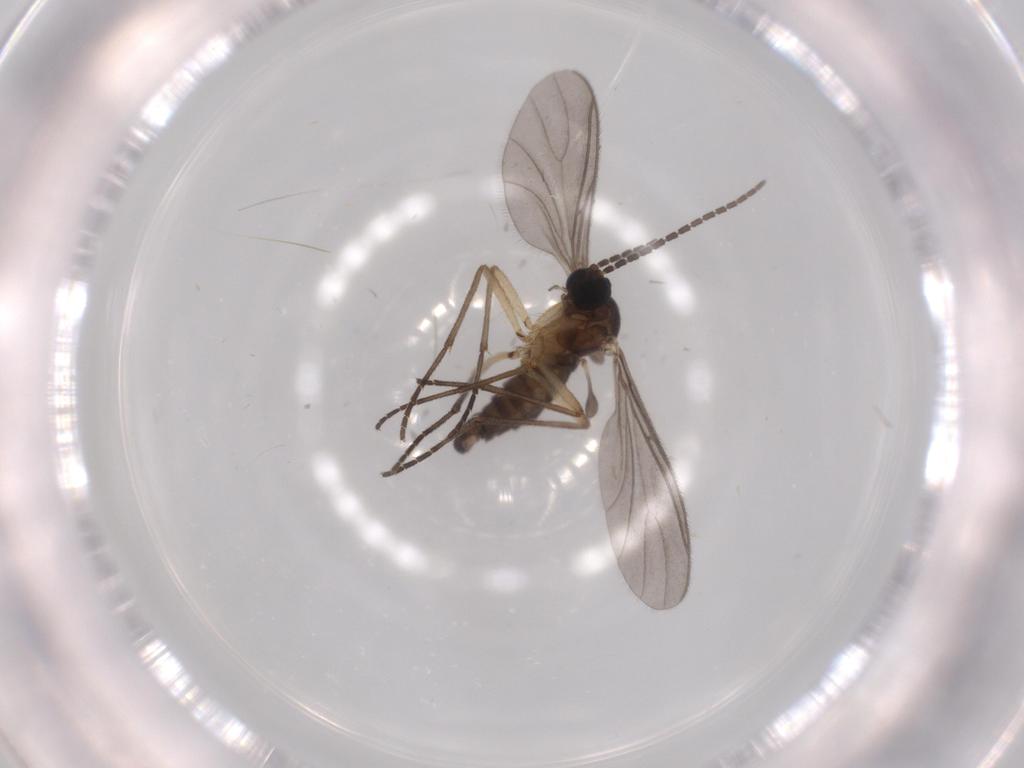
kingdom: Animalia
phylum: Arthropoda
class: Insecta
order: Diptera
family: Sciaridae
